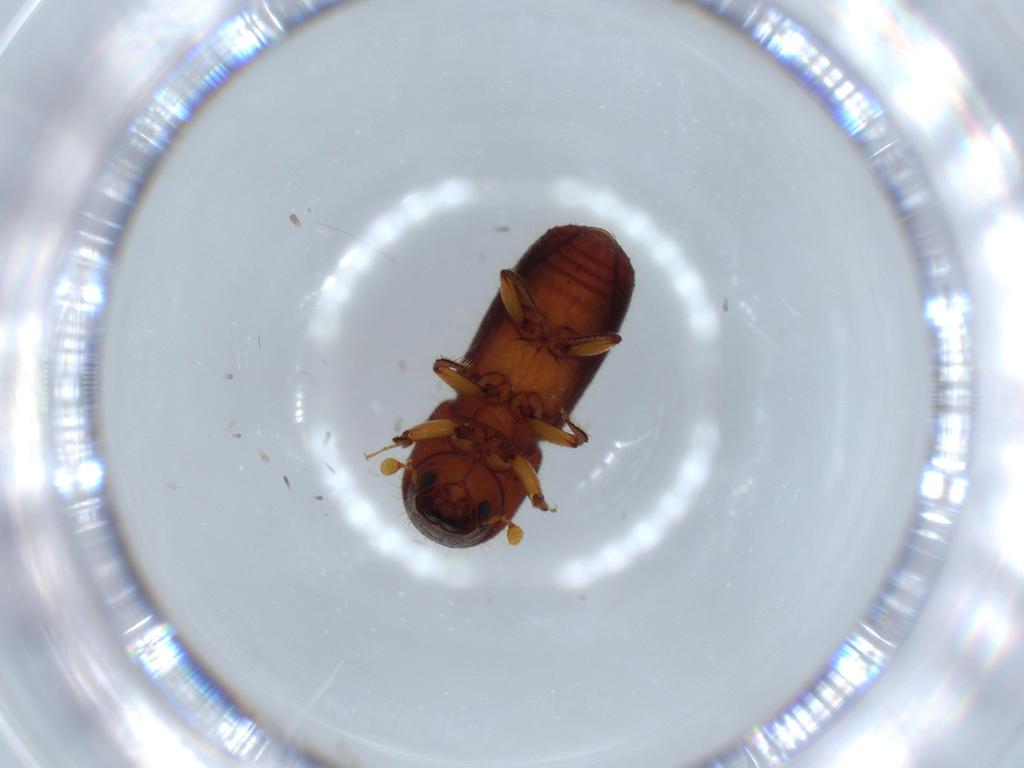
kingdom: Animalia
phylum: Arthropoda
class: Insecta
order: Coleoptera
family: Curculionidae
